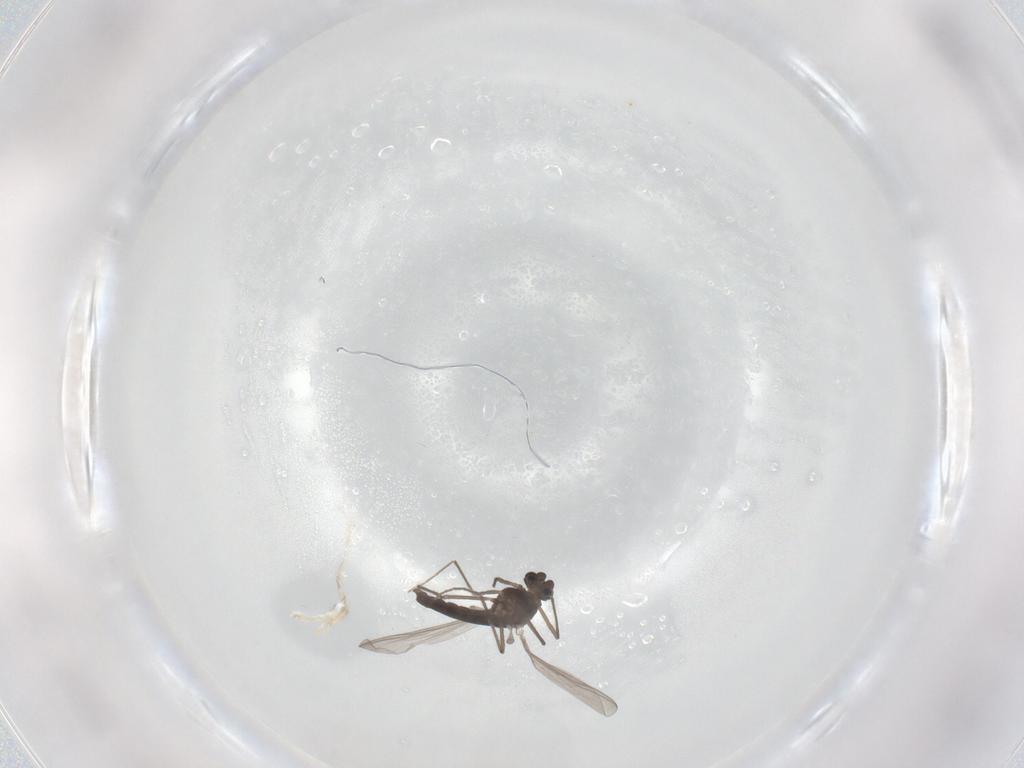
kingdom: Animalia
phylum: Arthropoda
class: Insecta
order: Diptera
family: Chironomidae
